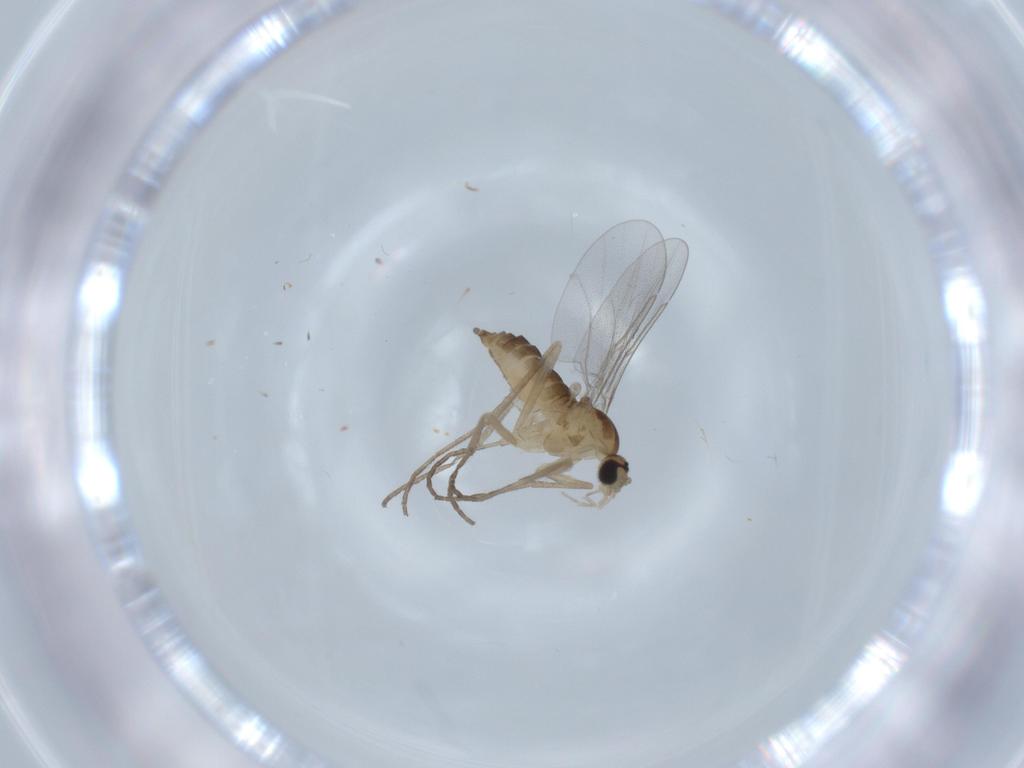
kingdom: Animalia
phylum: Arthropoda
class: Insecta
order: Diptera
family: Cecidomyiidae
